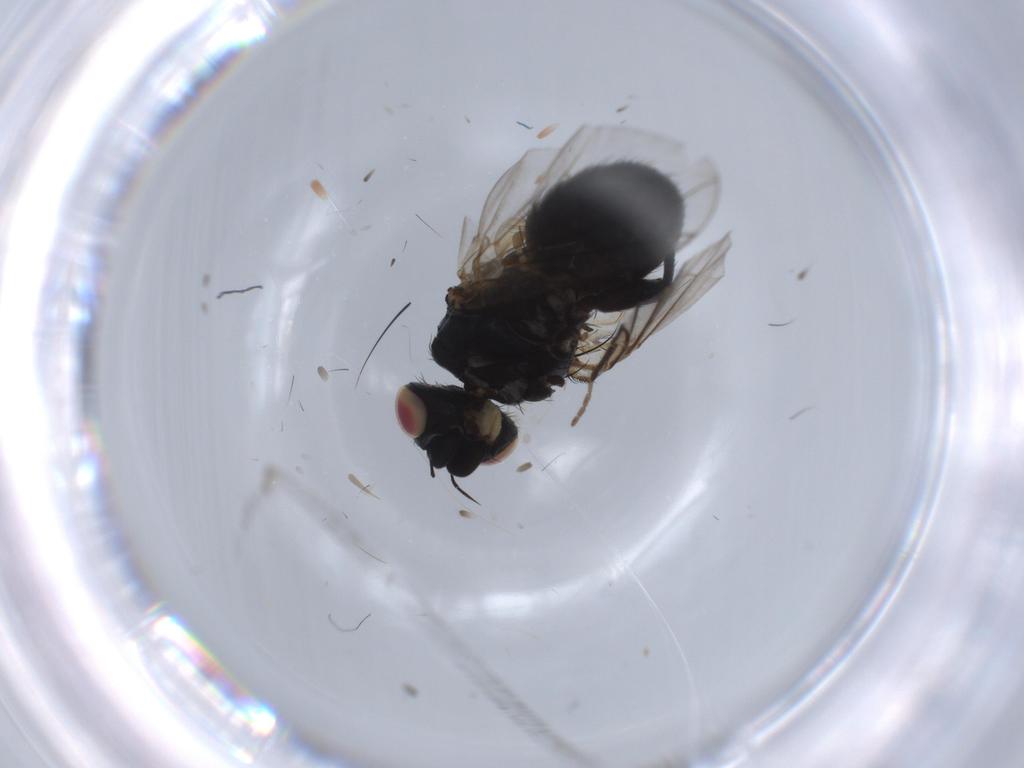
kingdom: Animalia
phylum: Arthropoda
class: Insecta
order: Diptera
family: Tachinidae
